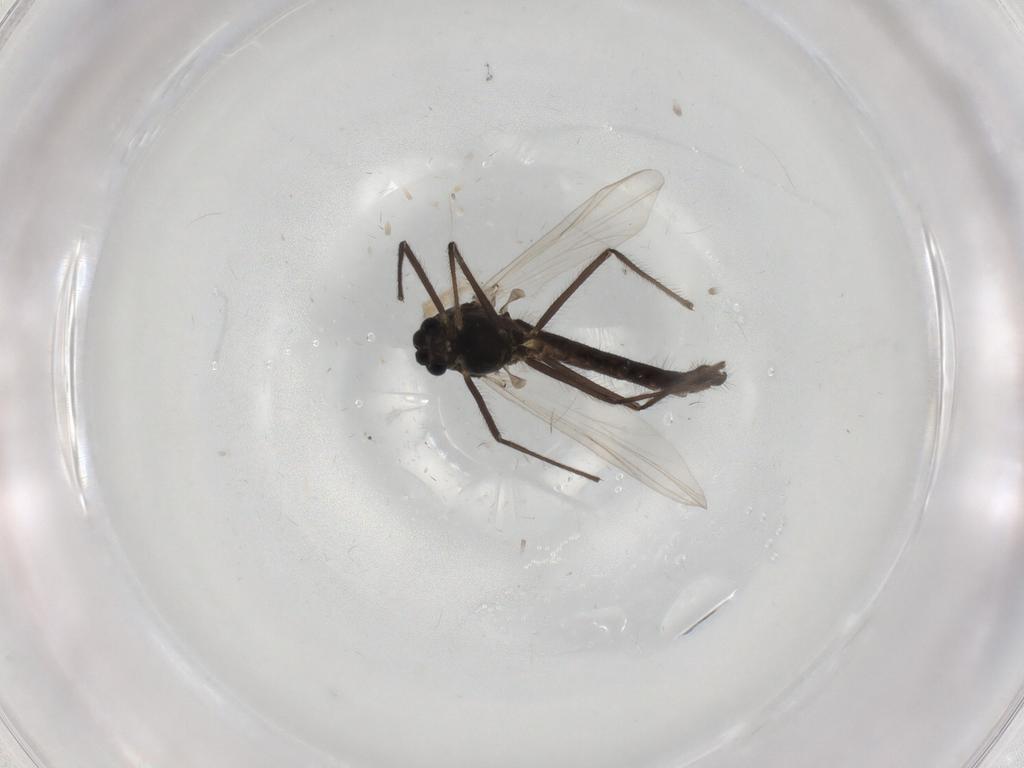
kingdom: Animalia
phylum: Arthropoda
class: Insecta
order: Diptera
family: Chironomidae
